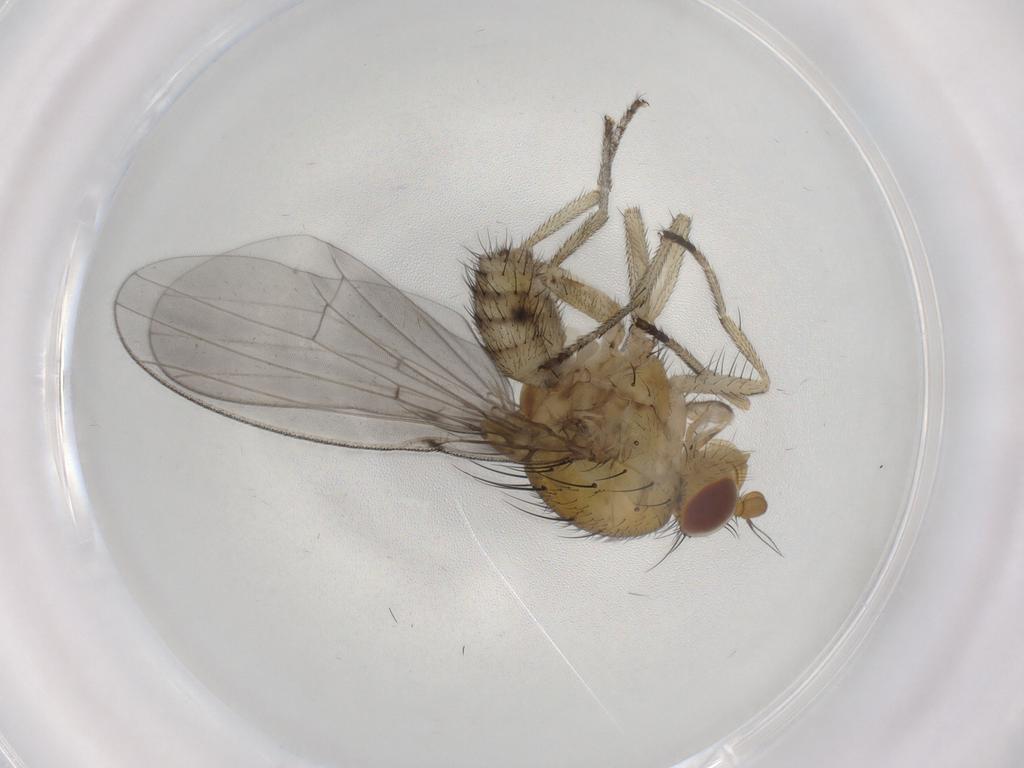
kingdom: Animalia
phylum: Arthropoda
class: Insecta
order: Diptera
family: Sciaridae
